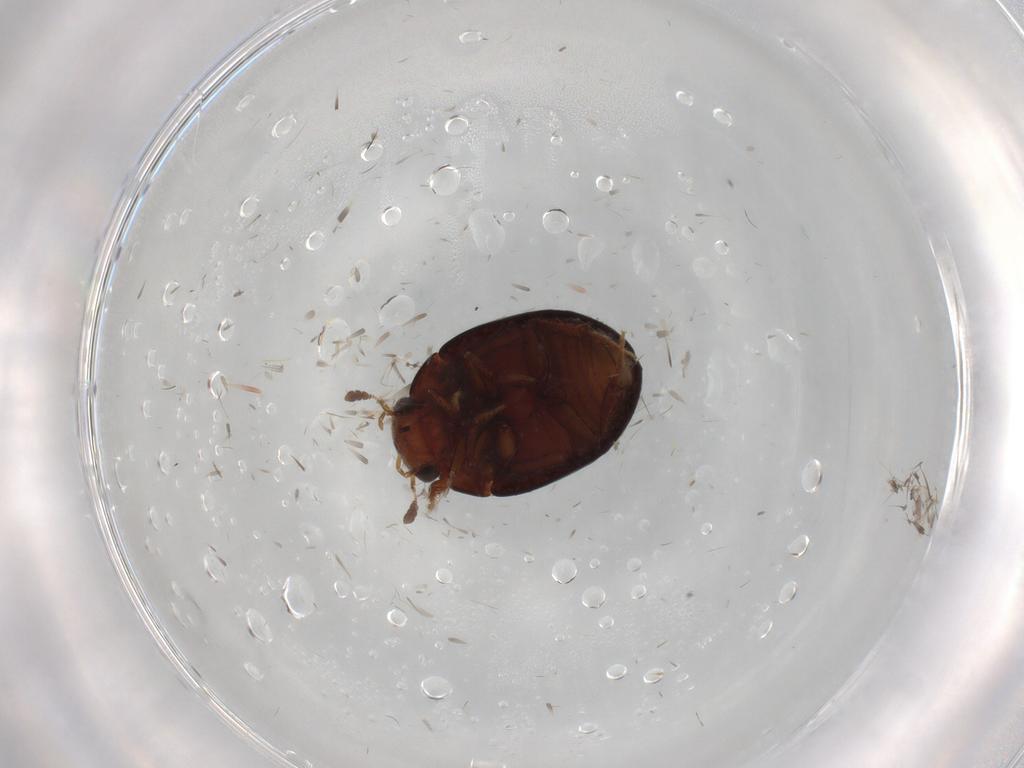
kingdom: Animalia
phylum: Arthropoda
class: Insecta
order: Coleoptera
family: Hydrophilidae
